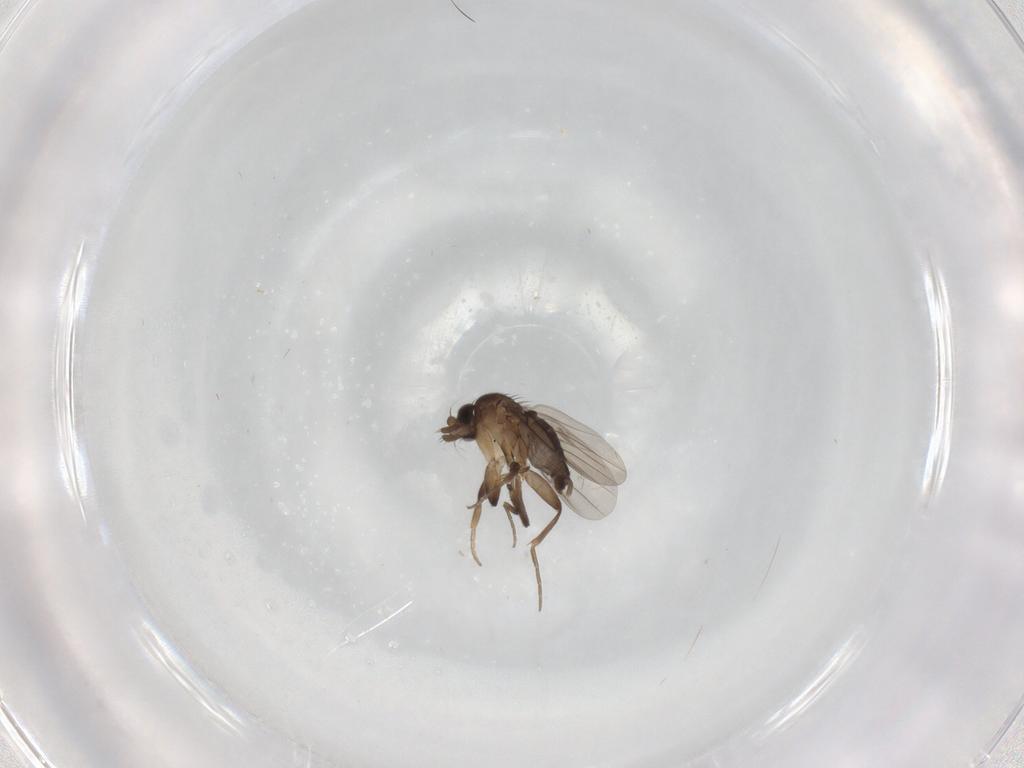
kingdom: Animalia
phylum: Arthropoda
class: Insecta
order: Diptera
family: Phoridae
